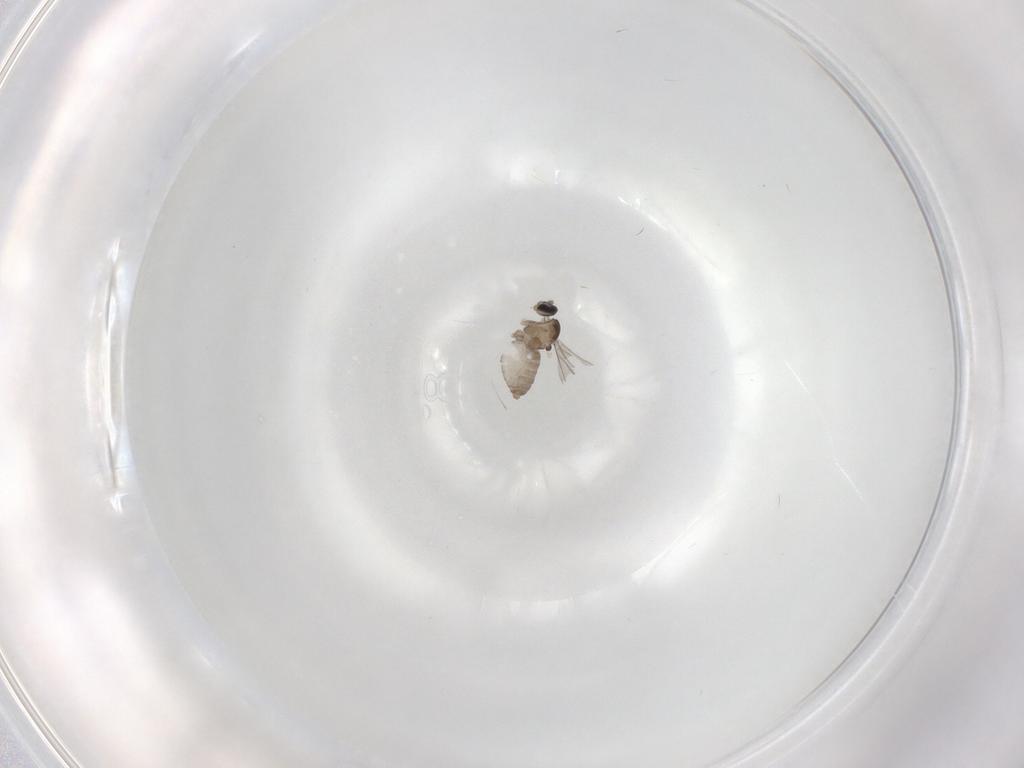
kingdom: Animalia
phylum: Arthropoda
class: Insecta
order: Diptera
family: Cecidomyiidae
